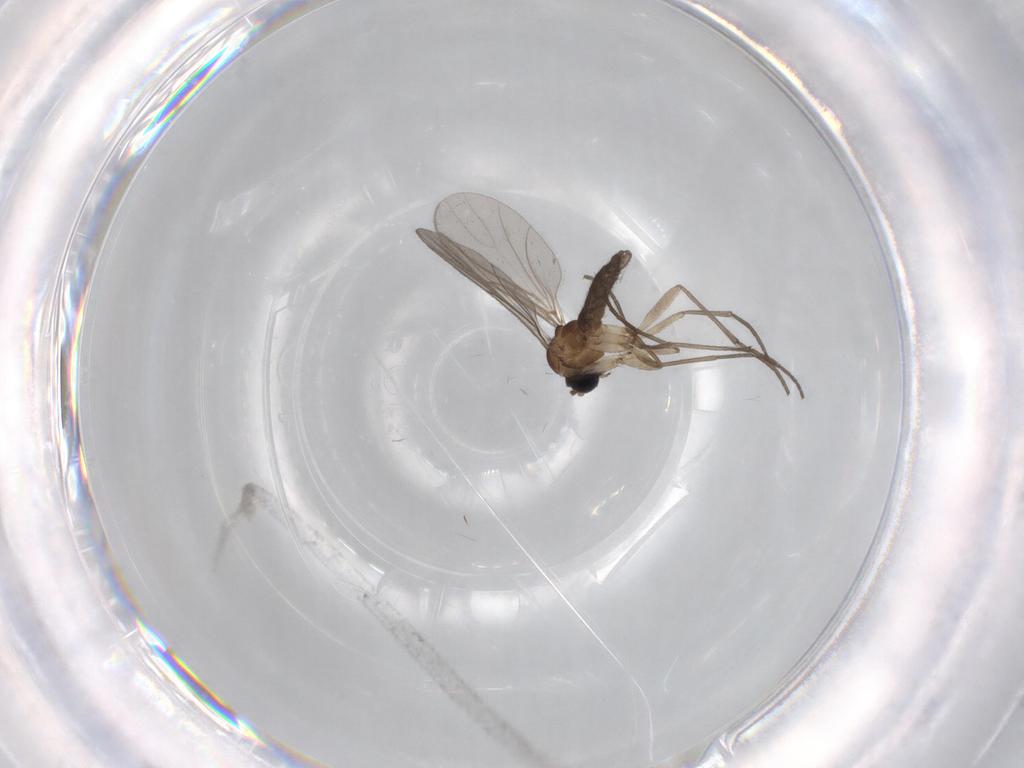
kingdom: Animalia
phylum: Arthropoda
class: Insecta
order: Diptera
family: Sciaridae
